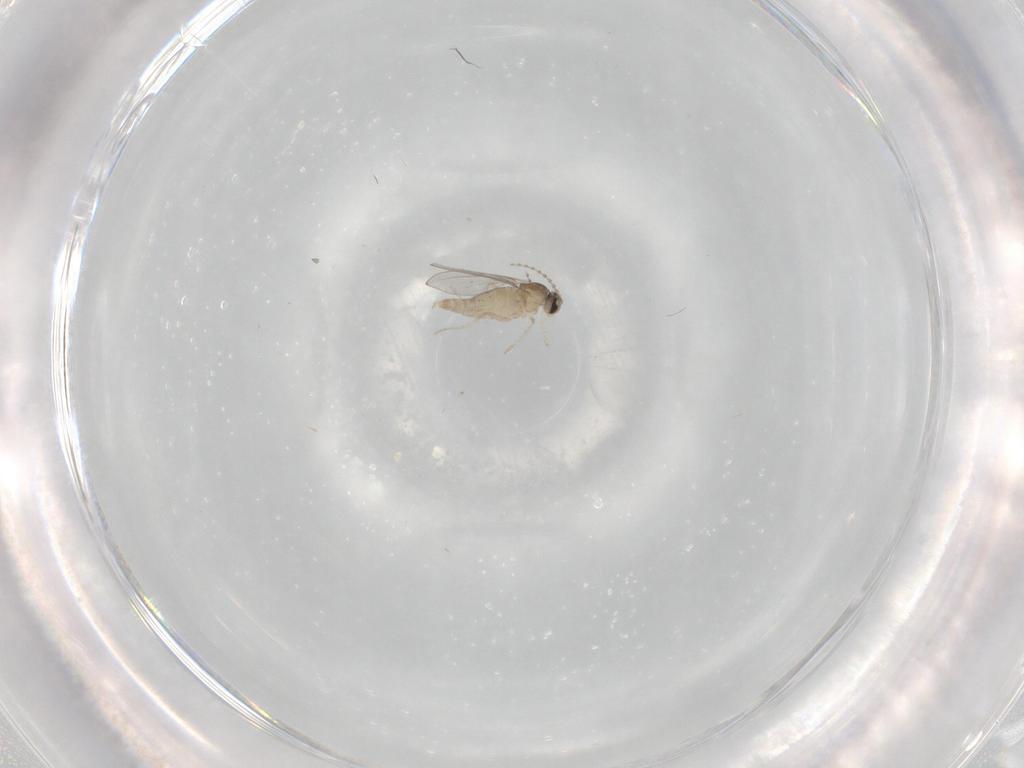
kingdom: Animalia
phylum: Arthropoda
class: Insecta
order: Diptera
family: Cecidomyiidae
